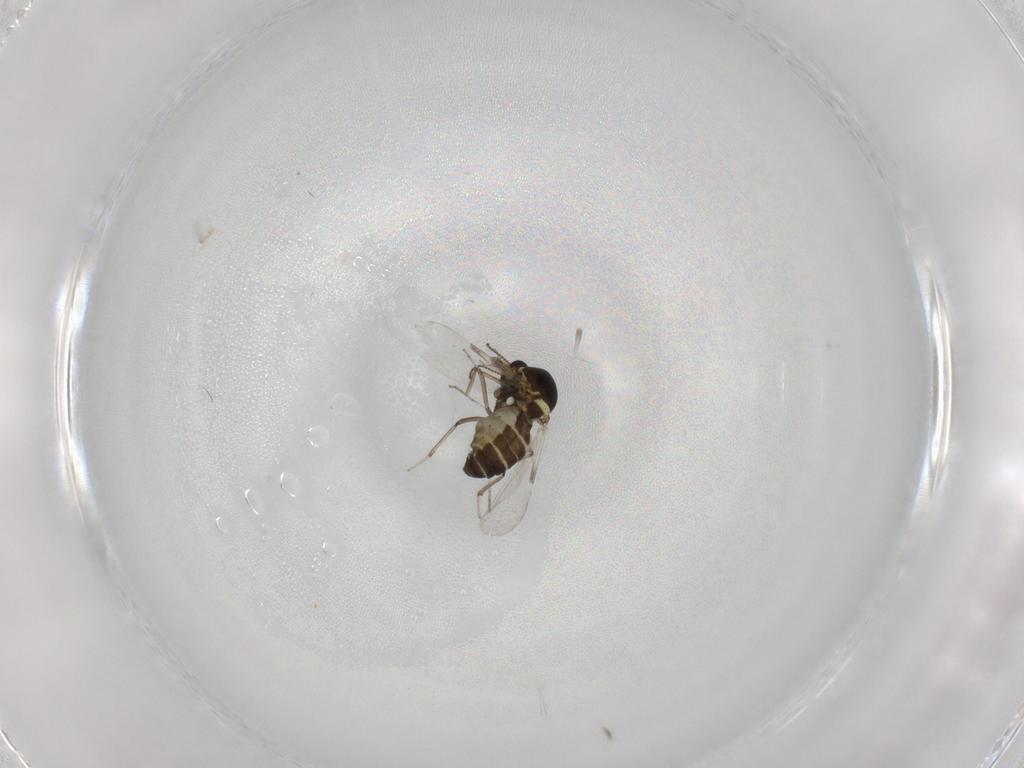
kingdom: Animalia
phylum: Arthropoda
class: Insecta
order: Diptera
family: Ceratopogonidae
